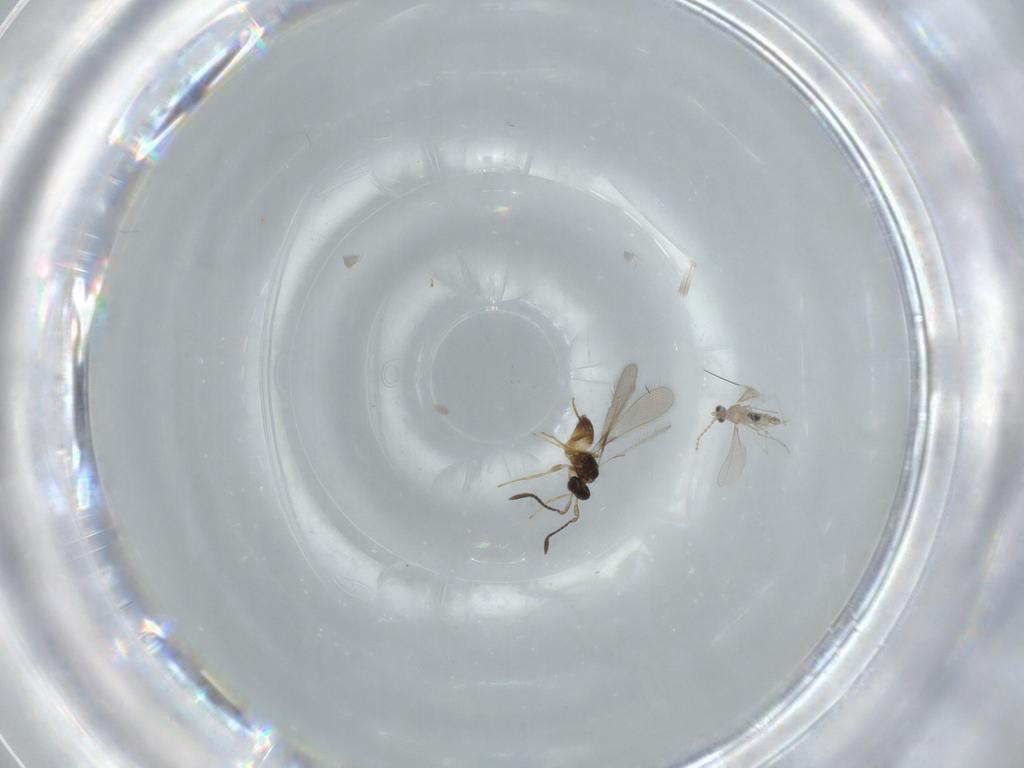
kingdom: Animalia
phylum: Arthropoda
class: Insecta
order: Hymenoptera
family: Mymaridae
